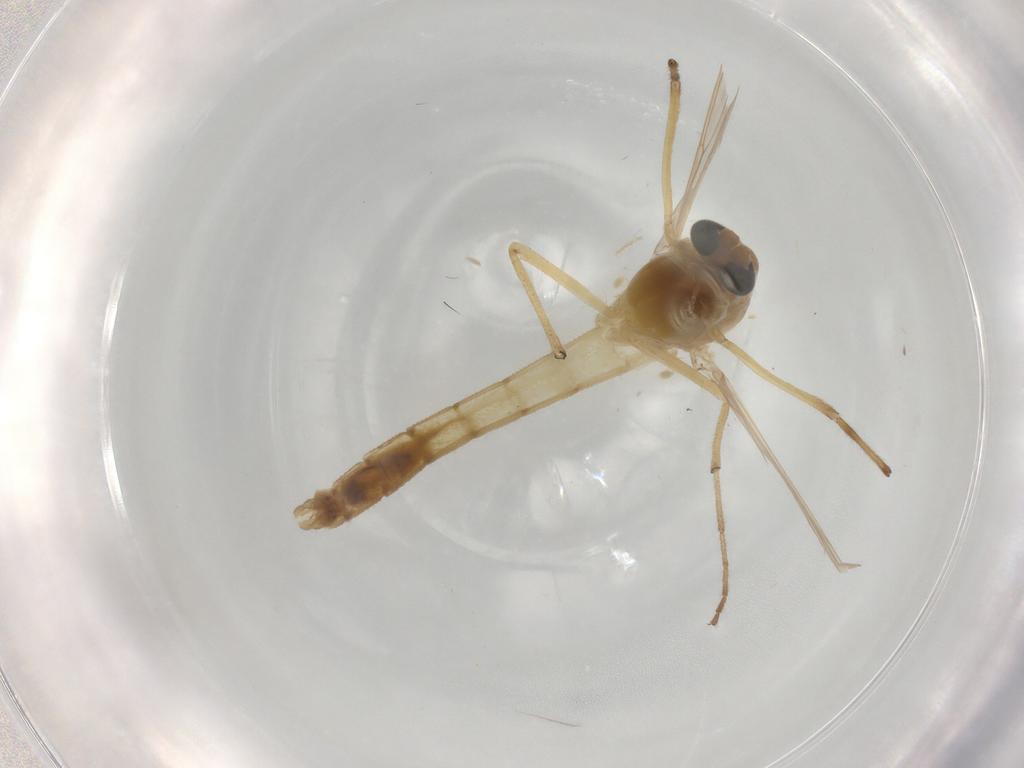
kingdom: Animalia
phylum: Arthropoda
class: Insecta
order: Diptera
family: Chironomidae
